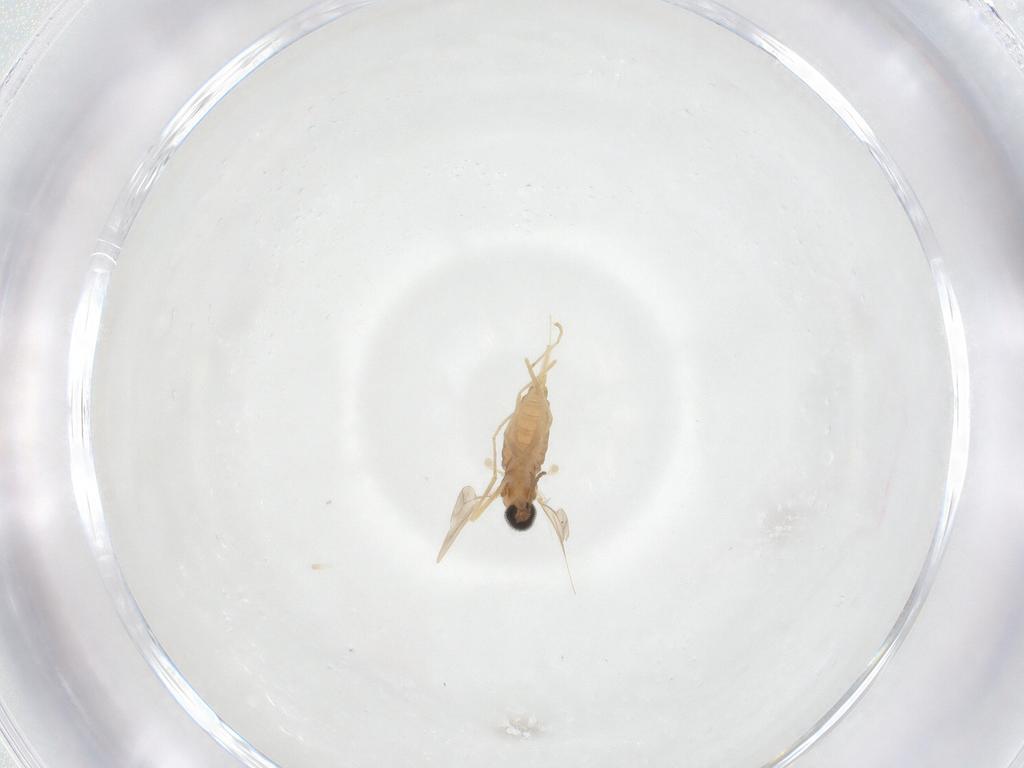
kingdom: Animalia
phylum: Arthropoda
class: Insecta
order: Diptera
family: Muscidae
